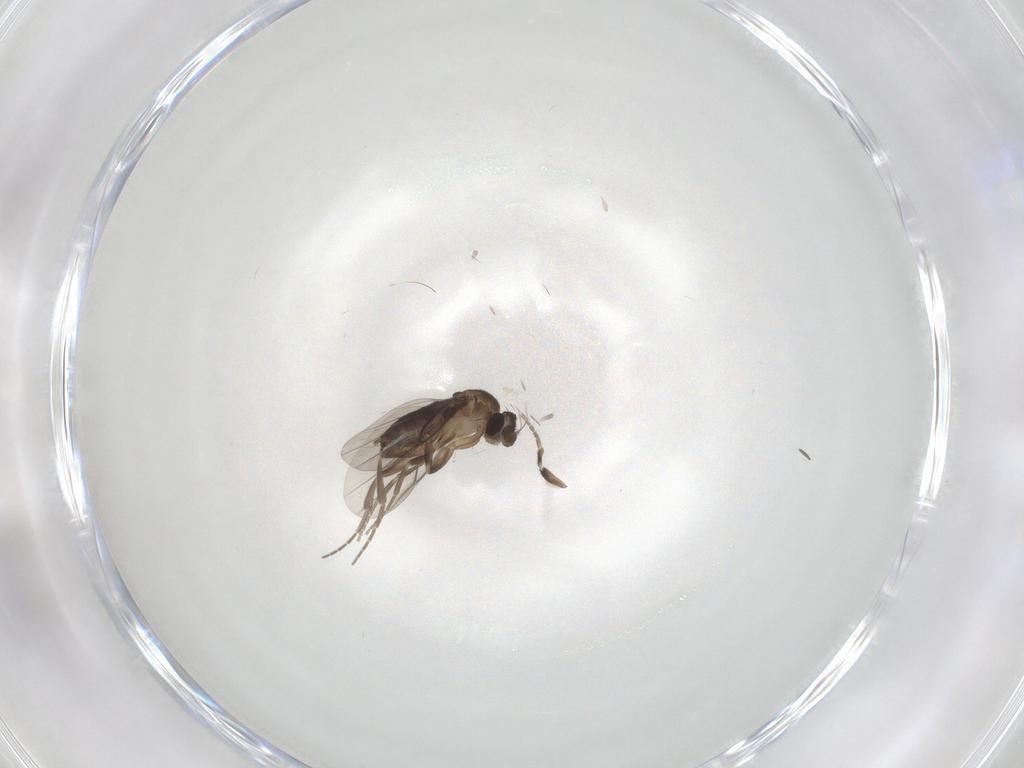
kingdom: Animalia
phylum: Arthropoda
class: Insecta
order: Diptera
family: Phoridae
